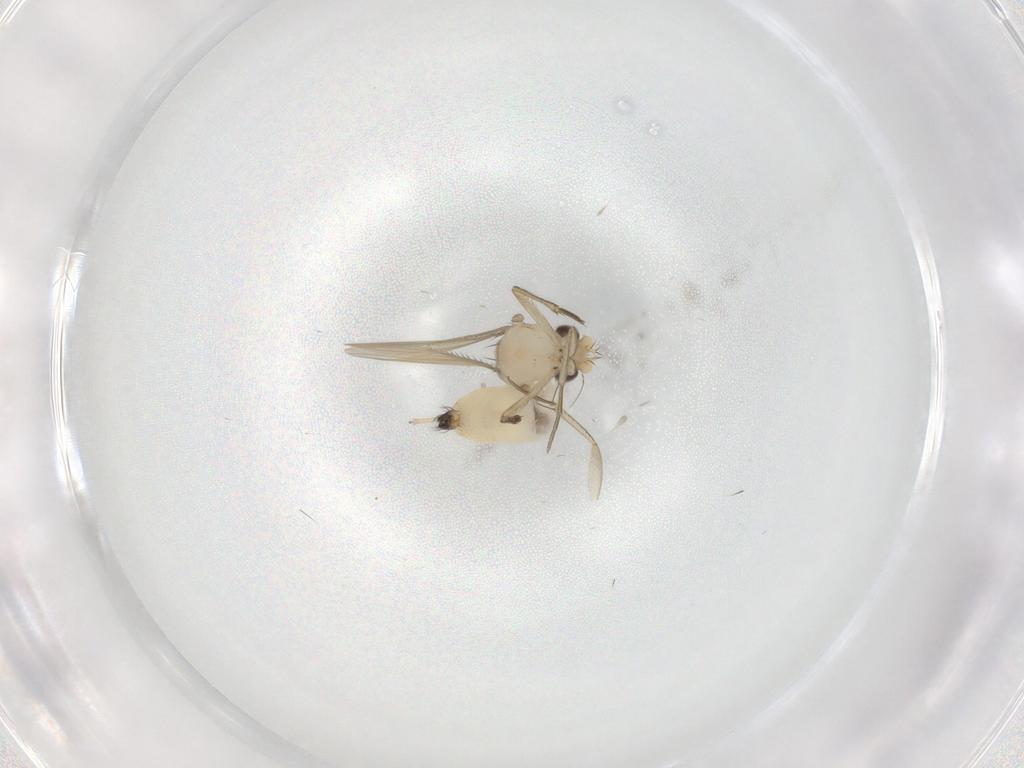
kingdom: Animalia
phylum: Arthropoda
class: Insecta
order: Diptera
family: Phoridae
